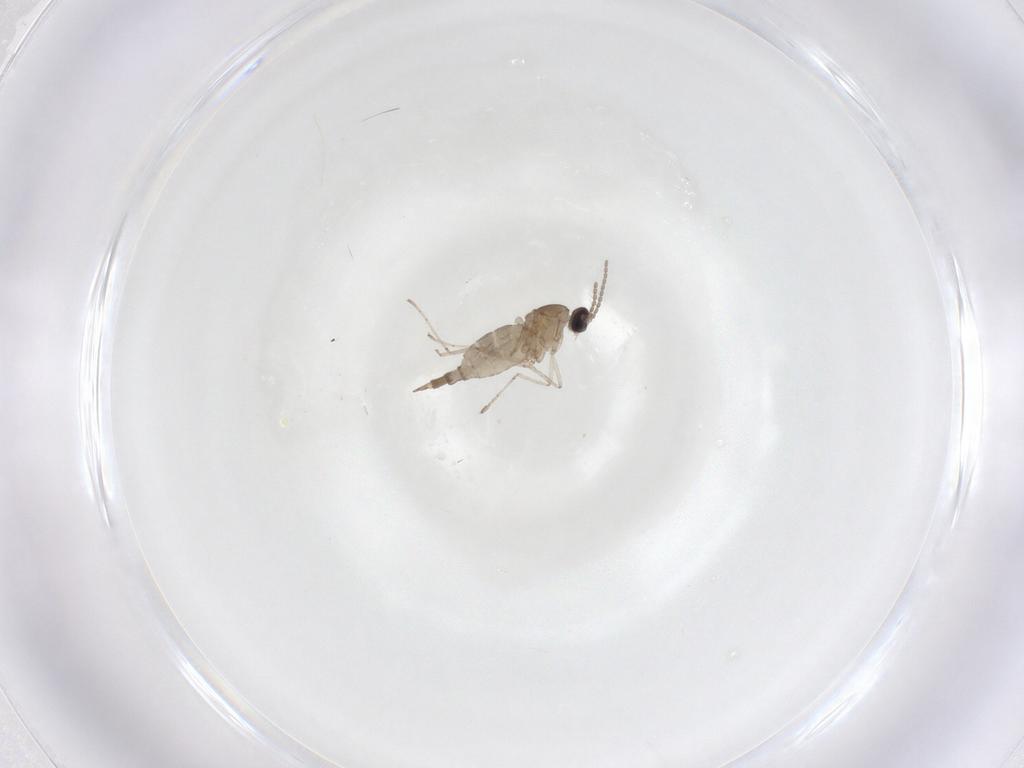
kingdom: Animalia
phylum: Arthropoda
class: Insecta
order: Diptera
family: Cecidomyiidae
